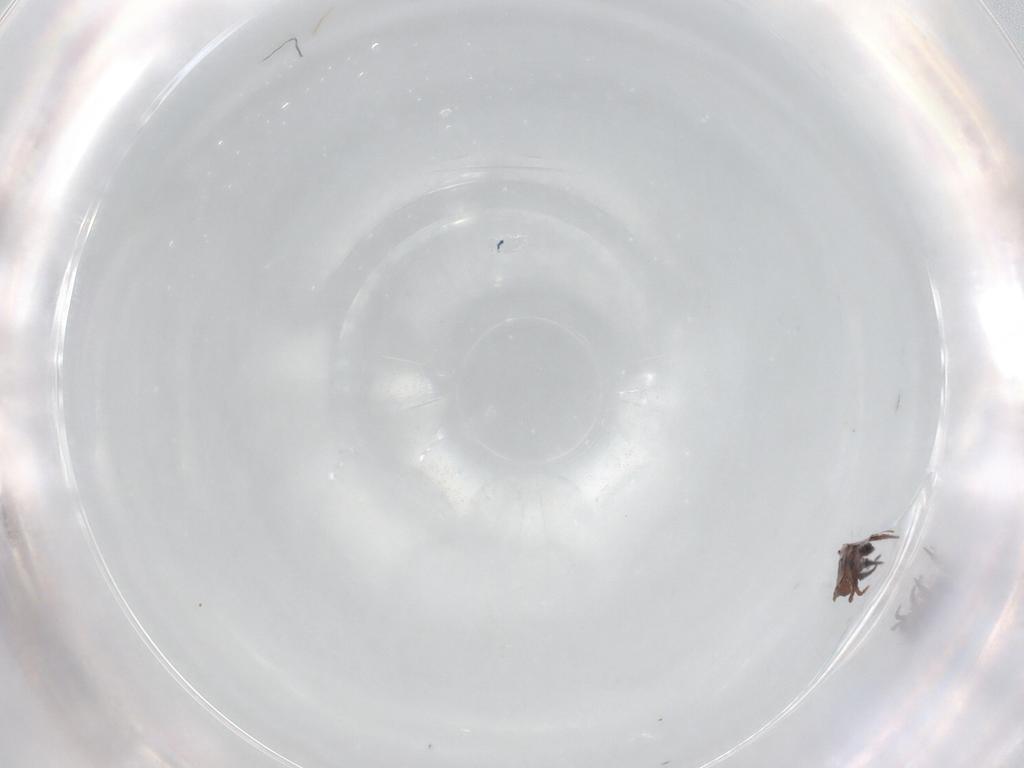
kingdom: Animalia
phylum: Arthropoda
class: Arachnida
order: Sarcoptiformes
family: Crotoniidae
